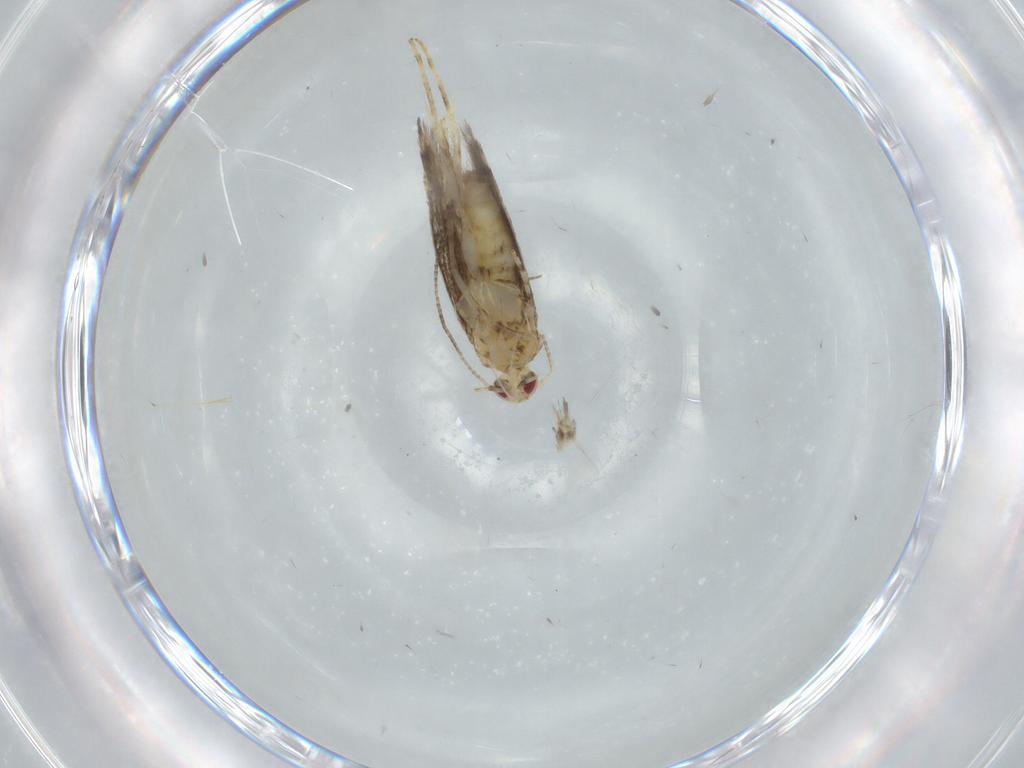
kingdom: Animalia
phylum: Arthropoda
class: Insecta
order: Lepidoptera
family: Gracillariidae
